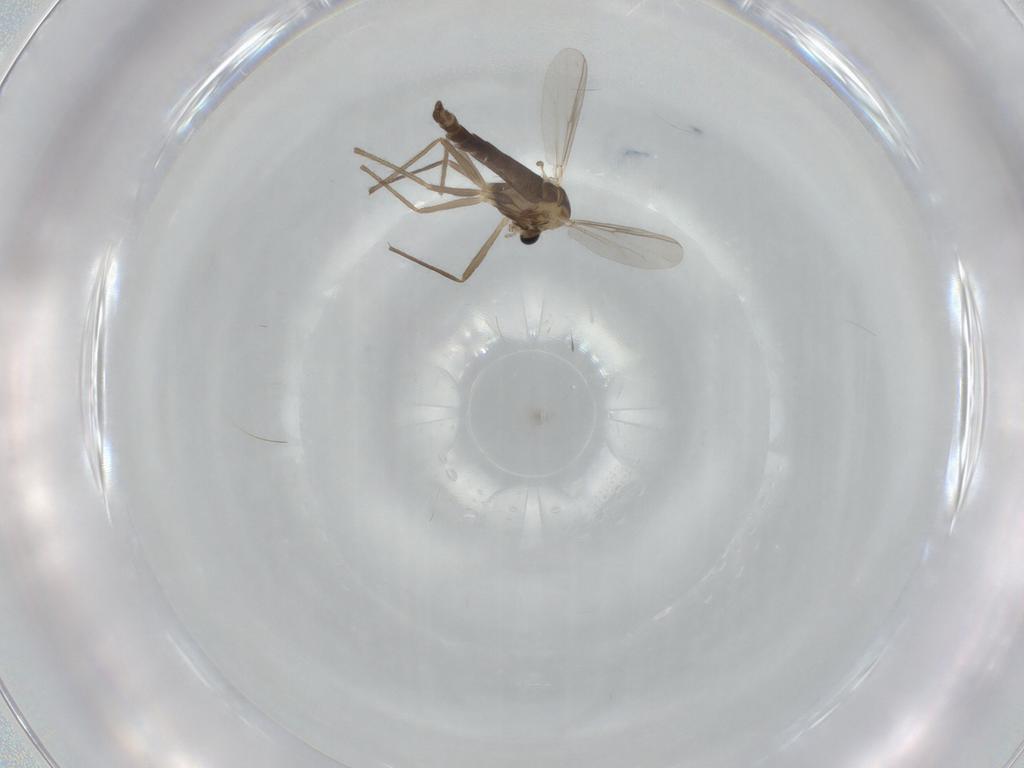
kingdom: Animalia
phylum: Arthropoda
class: Insecta
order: Diptera
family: Chironomidae
